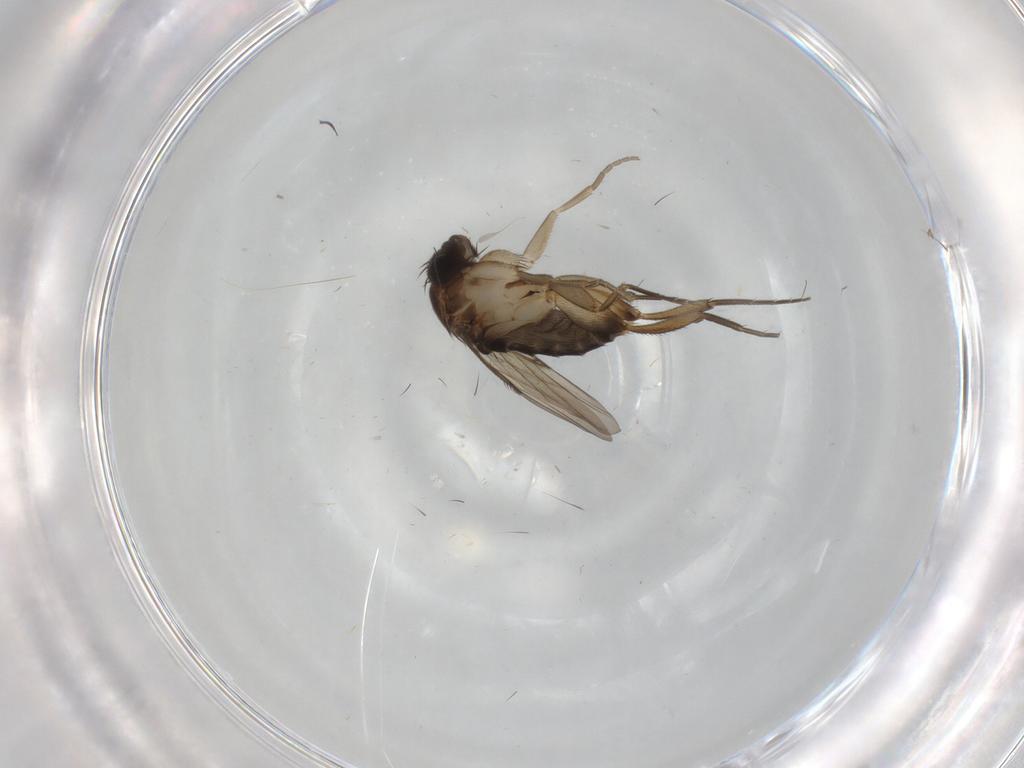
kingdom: Animalia
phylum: Arthropoda
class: Insecta
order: Diptera
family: Phoridae
